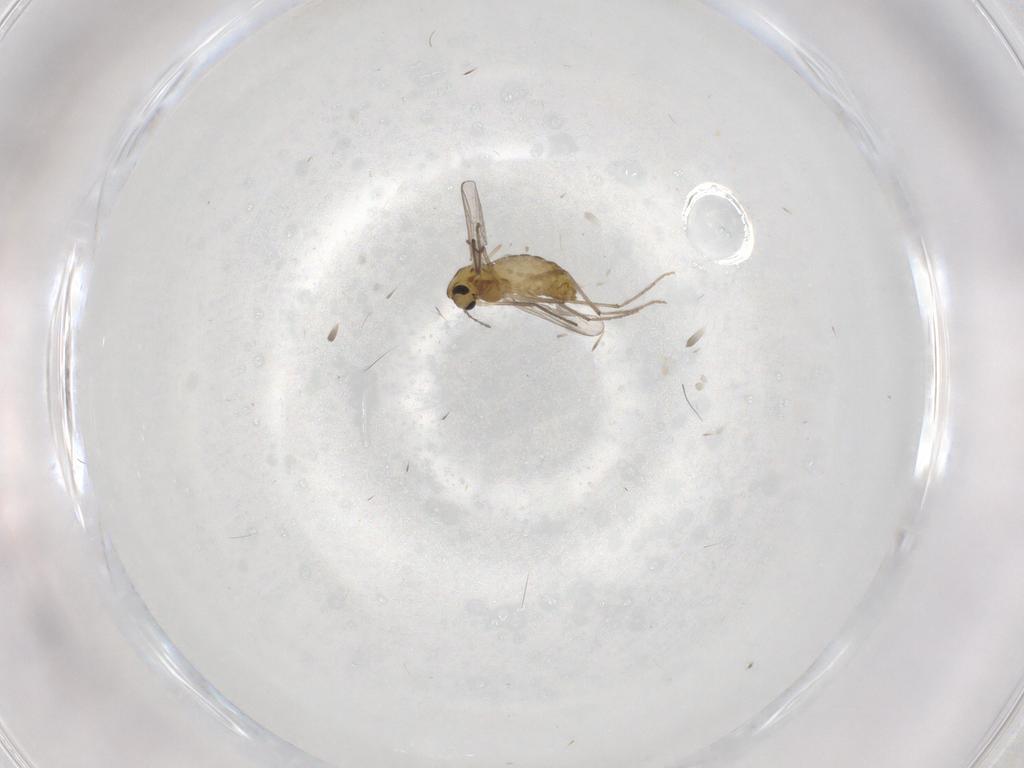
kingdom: Animalia
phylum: Arthropoda
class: Insecta
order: Diptera
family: Chironomidae
